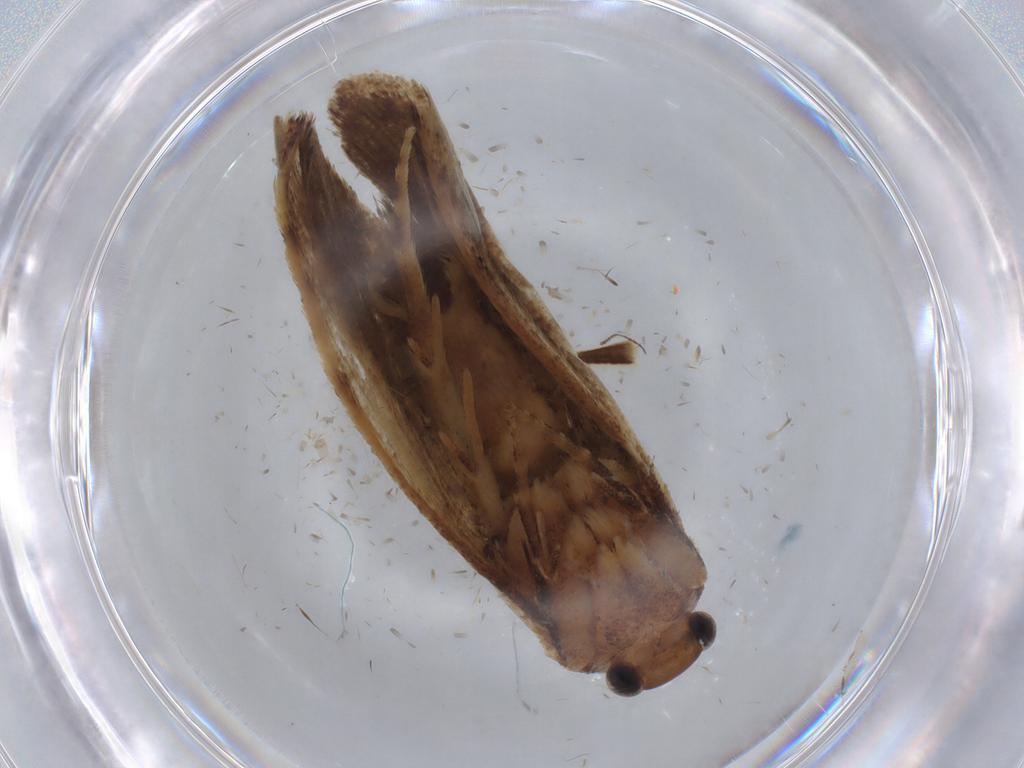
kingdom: Animalia
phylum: Arthropoda
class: Insecta
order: Lepidoptera
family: Nepticulidae
